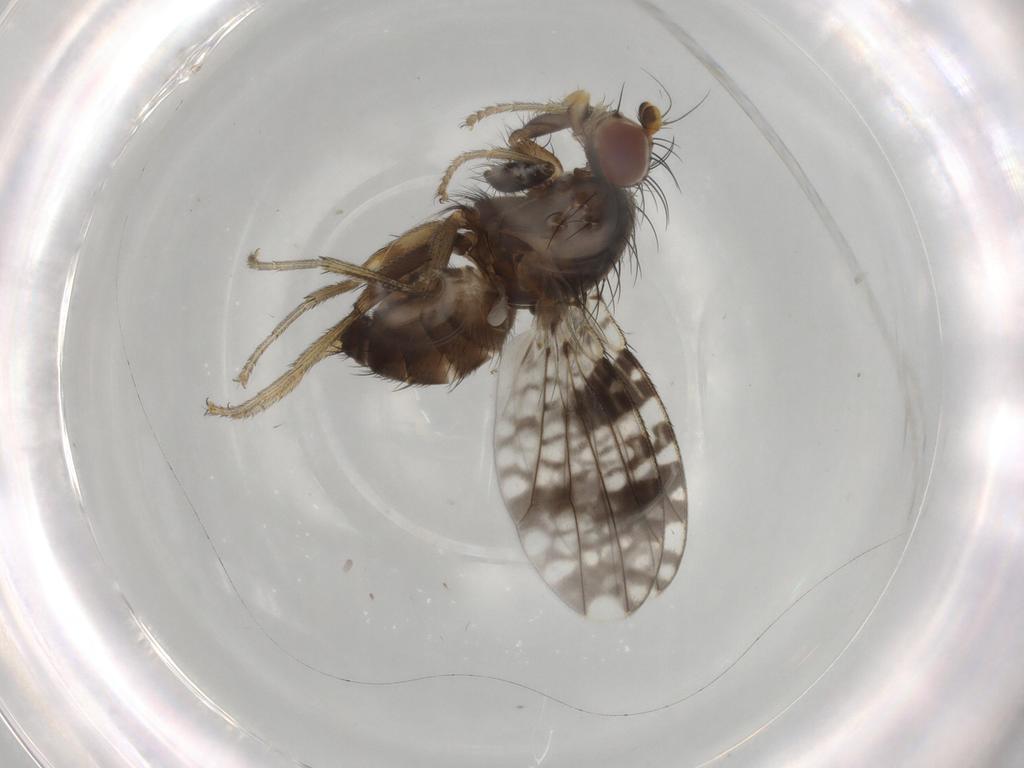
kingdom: Animalia
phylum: Arthropoda
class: Insecta
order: Diptera
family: Tephritidae
